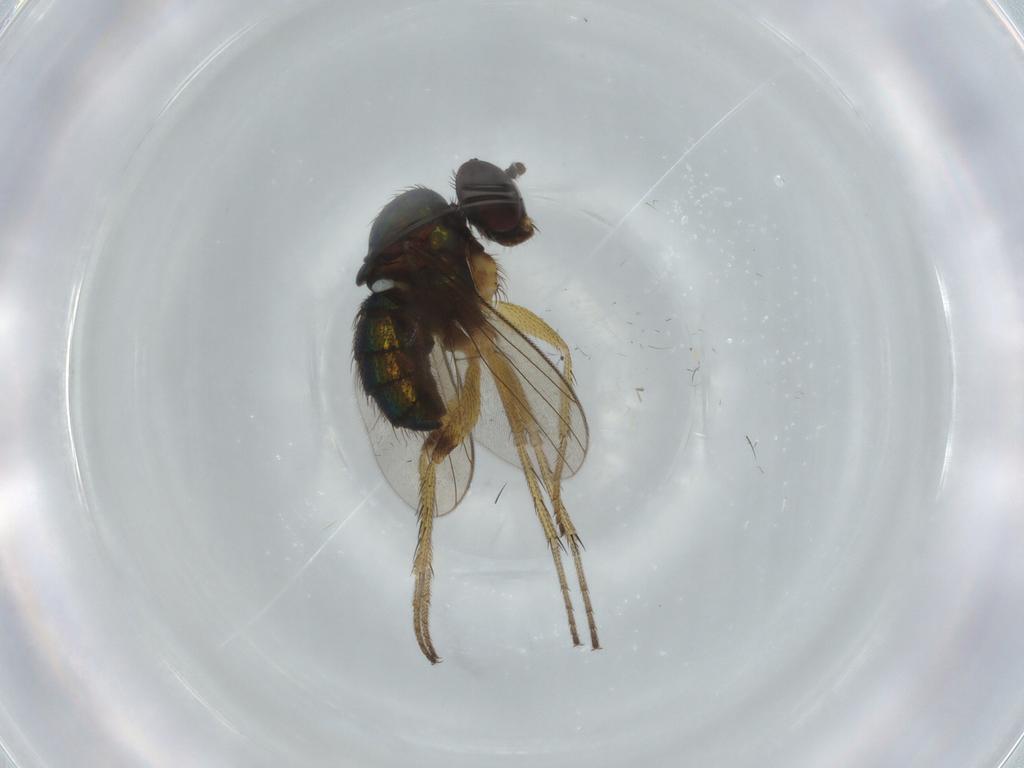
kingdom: Animalia
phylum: Arthropoda
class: Insecta
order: Diptera
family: Dolichopodidae
